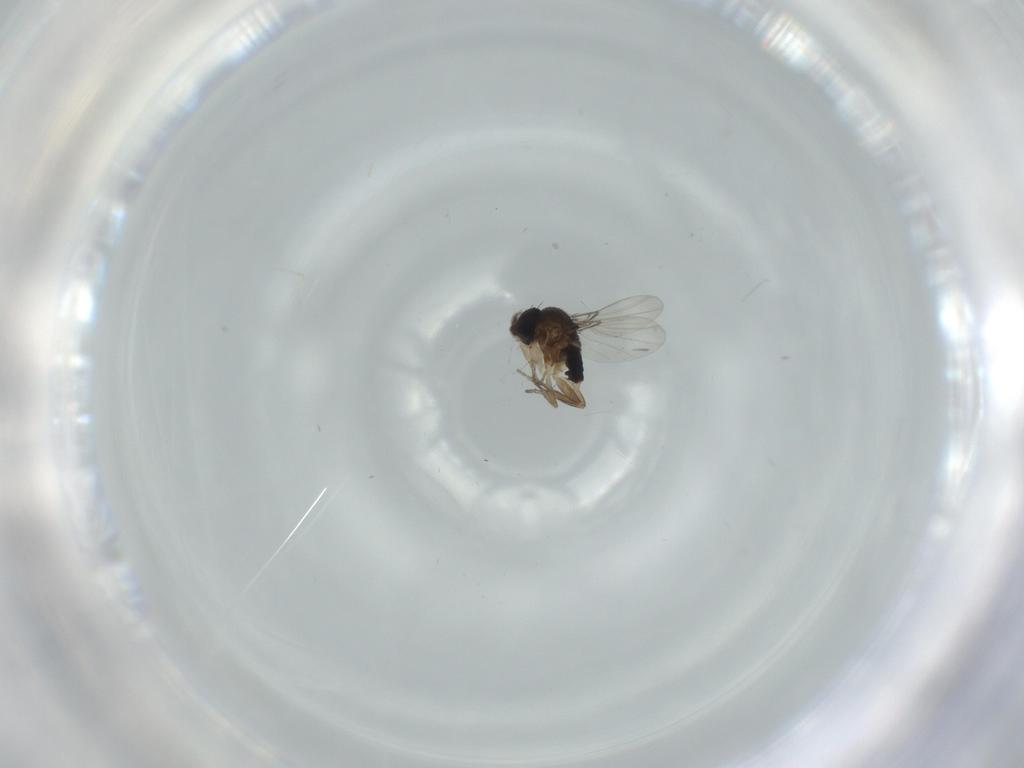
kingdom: Animalia
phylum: Arthropoda
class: Insecta
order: Diptera
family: Phoridae
